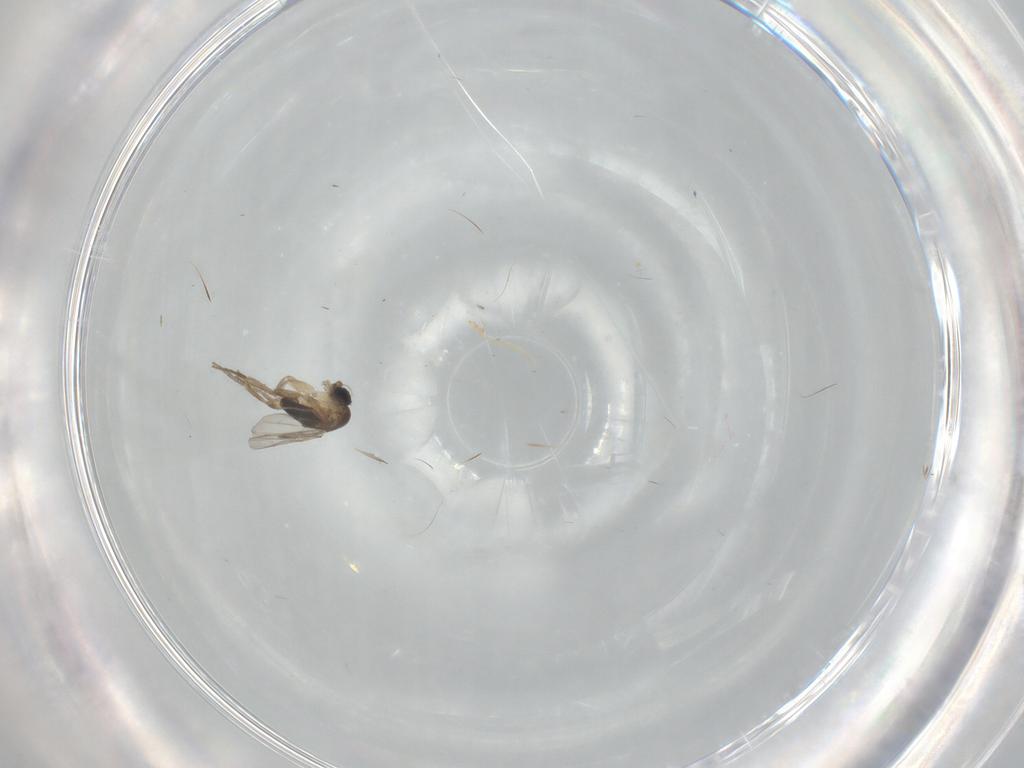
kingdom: Animalia
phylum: Arthropoda
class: Insecta
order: Diptera
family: Phoridae
